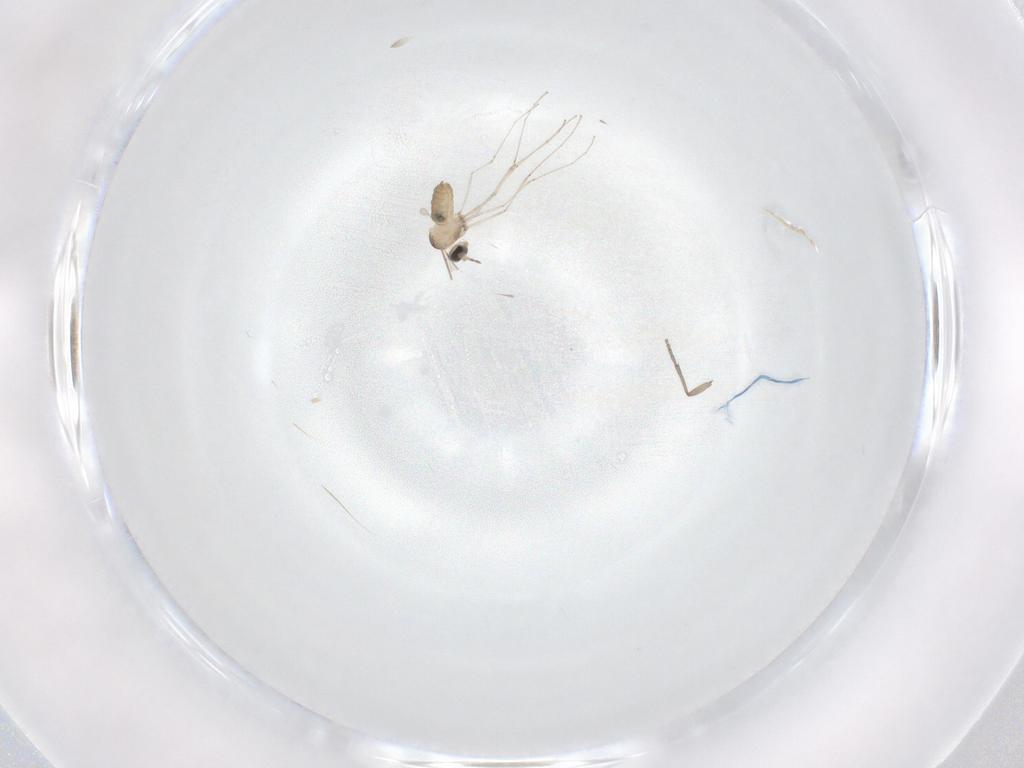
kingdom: Animalia
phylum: Arthropoda
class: Insecta
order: Diptera
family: Cecidomyiidae
